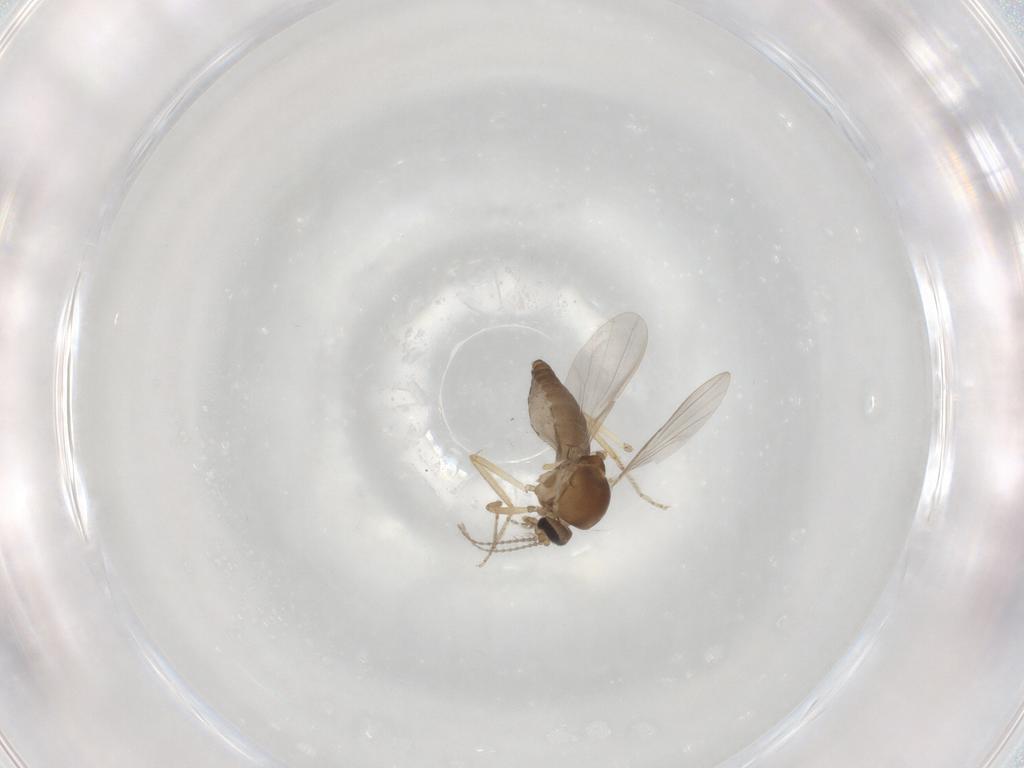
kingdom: Animalia
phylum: Arthropoda
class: Insecta
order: Diptera
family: Ceratopogonidae
